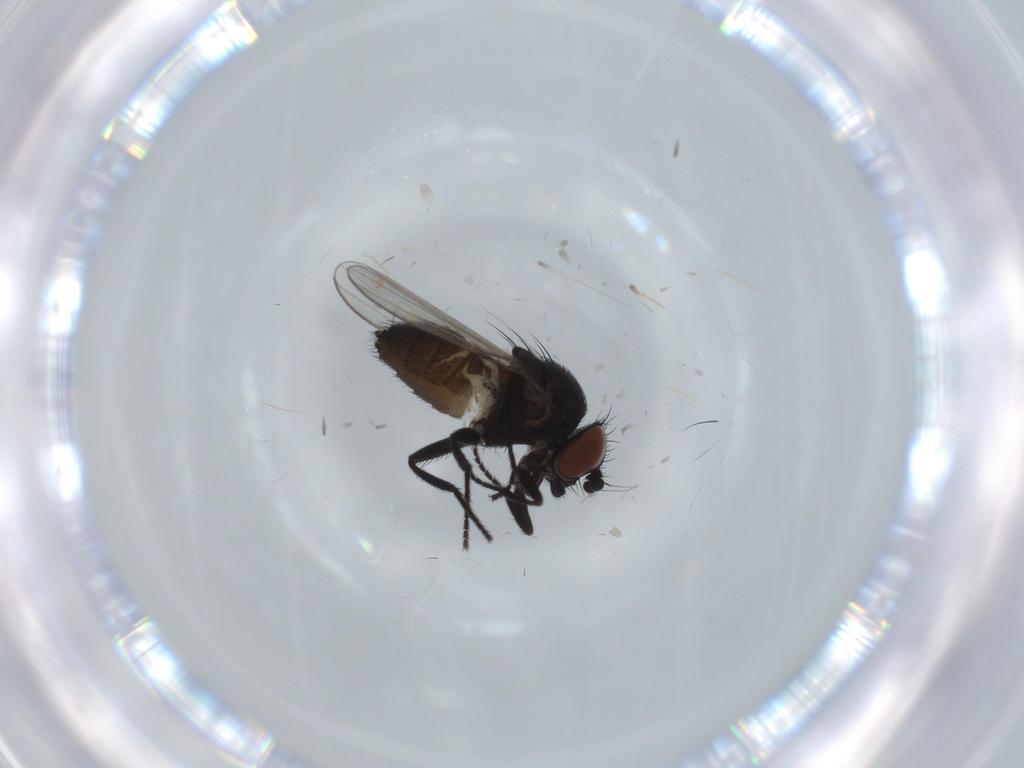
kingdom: Animalia
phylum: Arthropoda
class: Insecta
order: Diptera
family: Milichiidae
